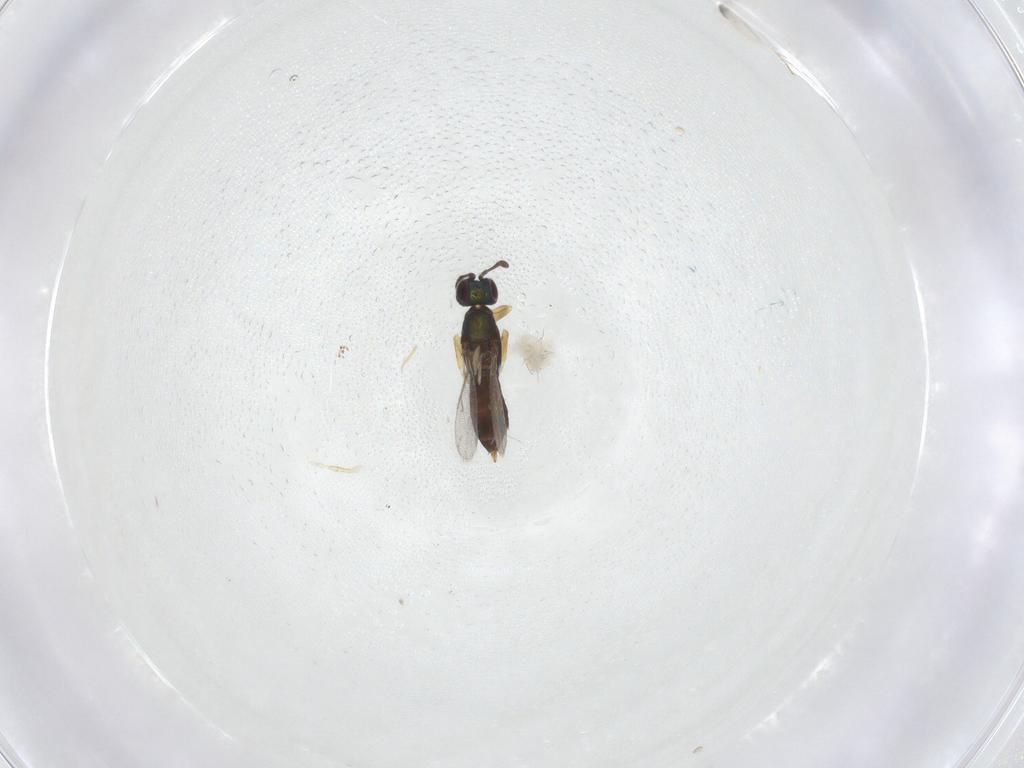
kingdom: Animalia
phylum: Arthropoda
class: Insecta
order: Hymenoptera
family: Eupelmidae
